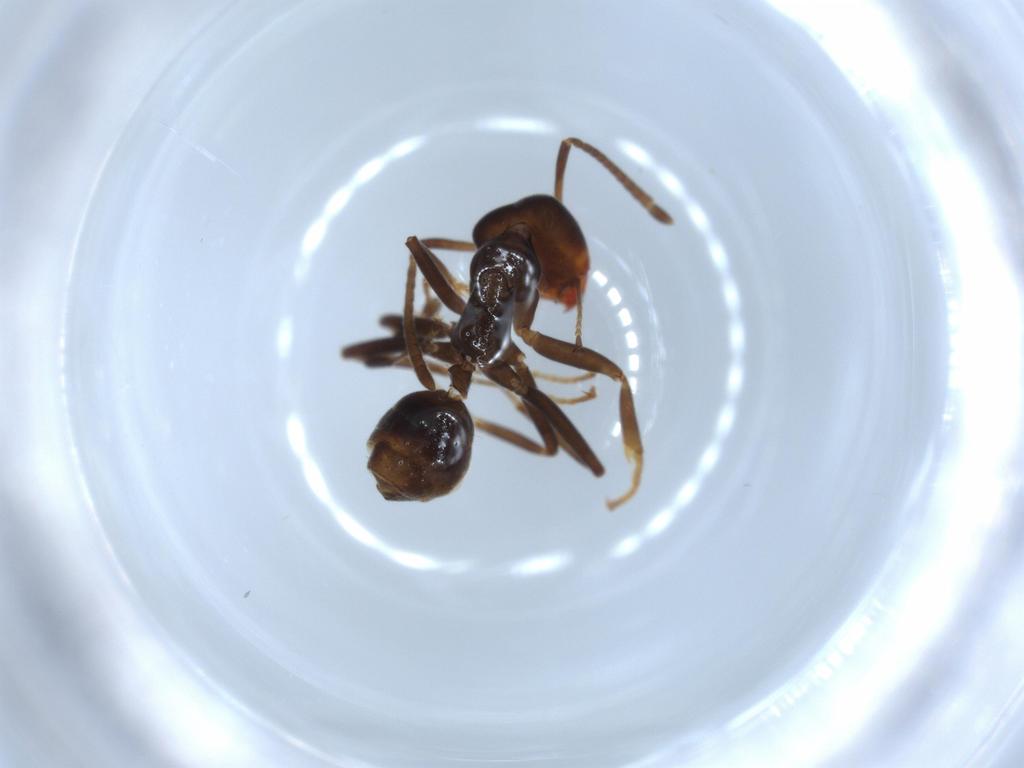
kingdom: Animalia
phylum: Arthropoda
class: Insecta
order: Hymenoptera
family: Formicidae
